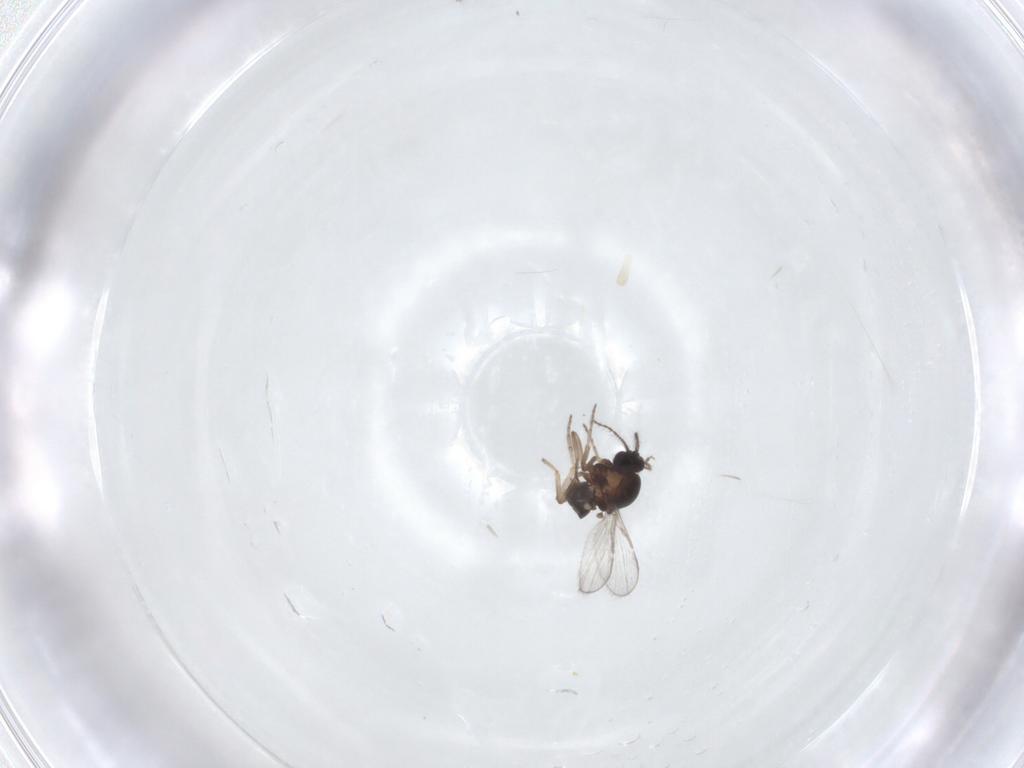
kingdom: Animalia
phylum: Arthropoda
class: Insecta
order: Diptera
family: Ceratopogonidae
